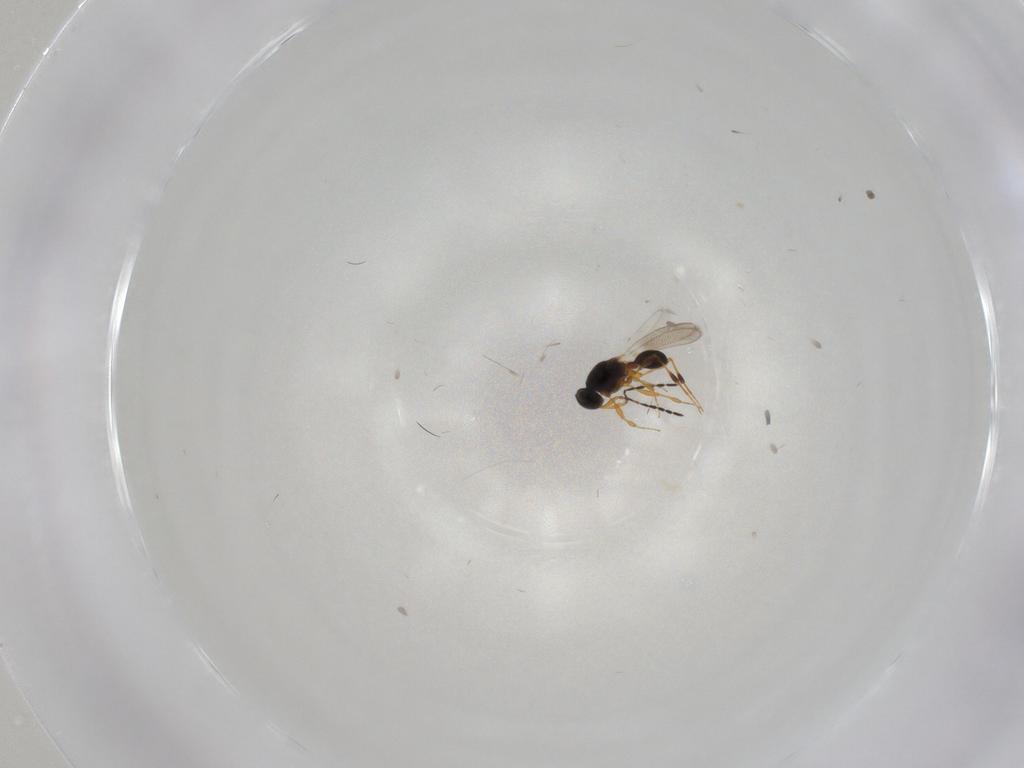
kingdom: Animalia
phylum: Arthropoda
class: Insecta
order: Hymenoptera
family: Platygastridae
